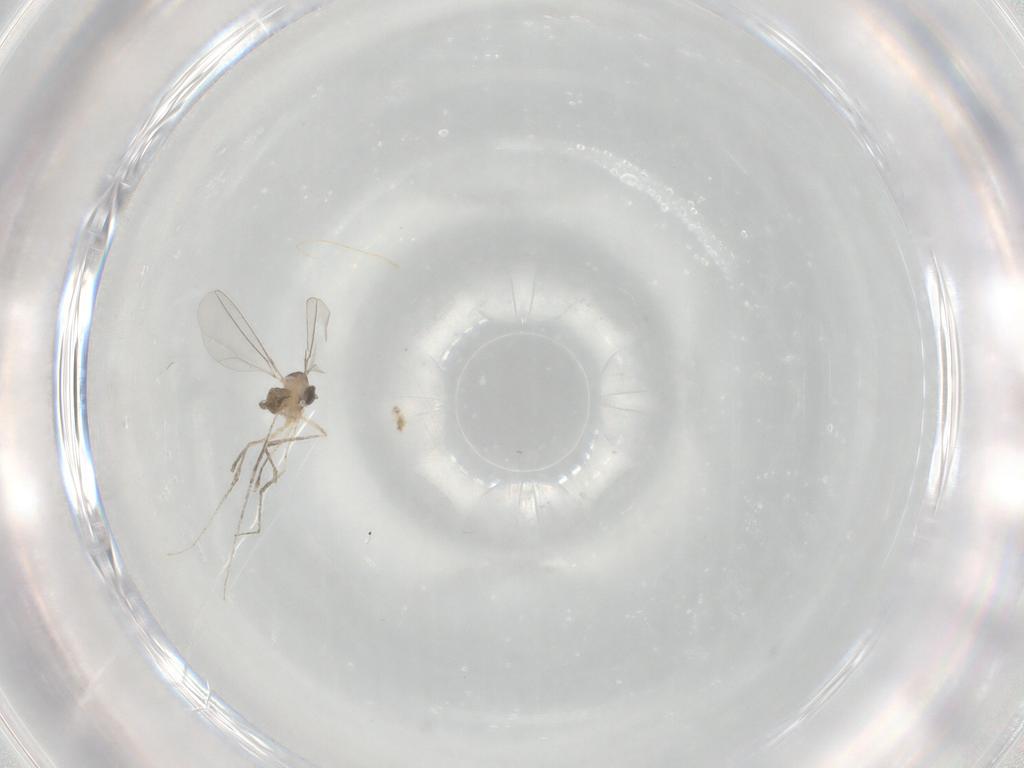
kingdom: Animalia
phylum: Arthropoda
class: Insecta
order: Diptera
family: Cecidomyiidae
